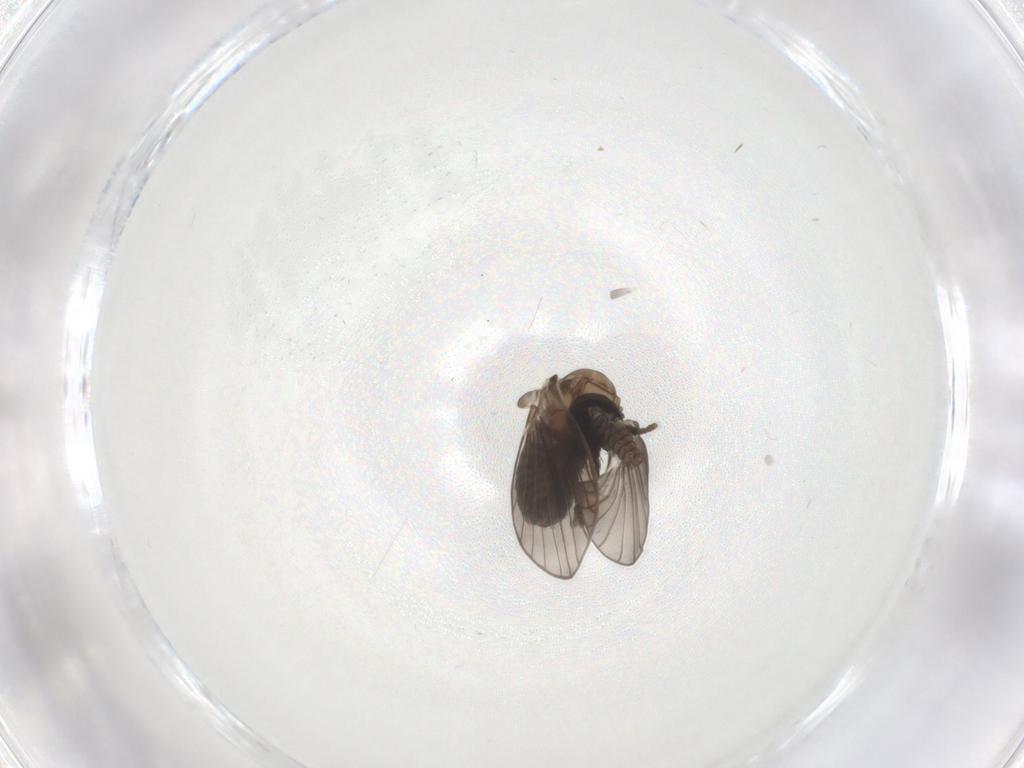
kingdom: Animalia
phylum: Arthropoda
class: Insecta
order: Diptera
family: Psychodidae
